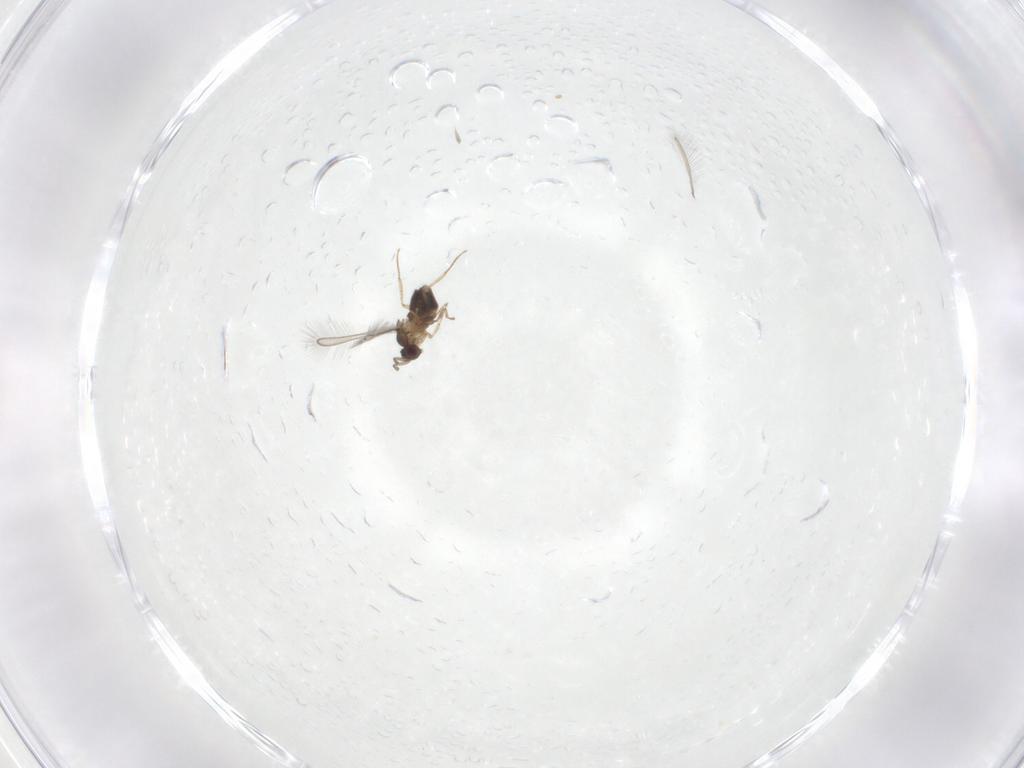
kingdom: Animalia
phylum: Arthropoda
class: Insecta
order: Hymenoptera
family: Mymaridae
